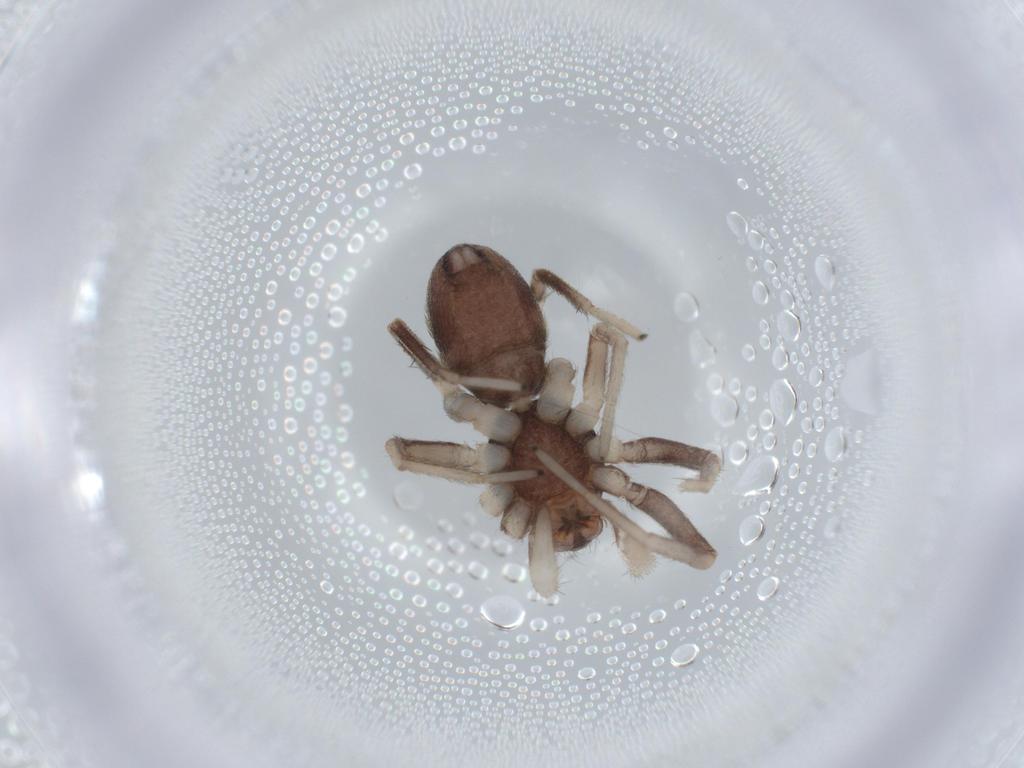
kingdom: Animalia
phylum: Arthropoda
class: Arachnida
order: Araneae
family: Corinnidae
